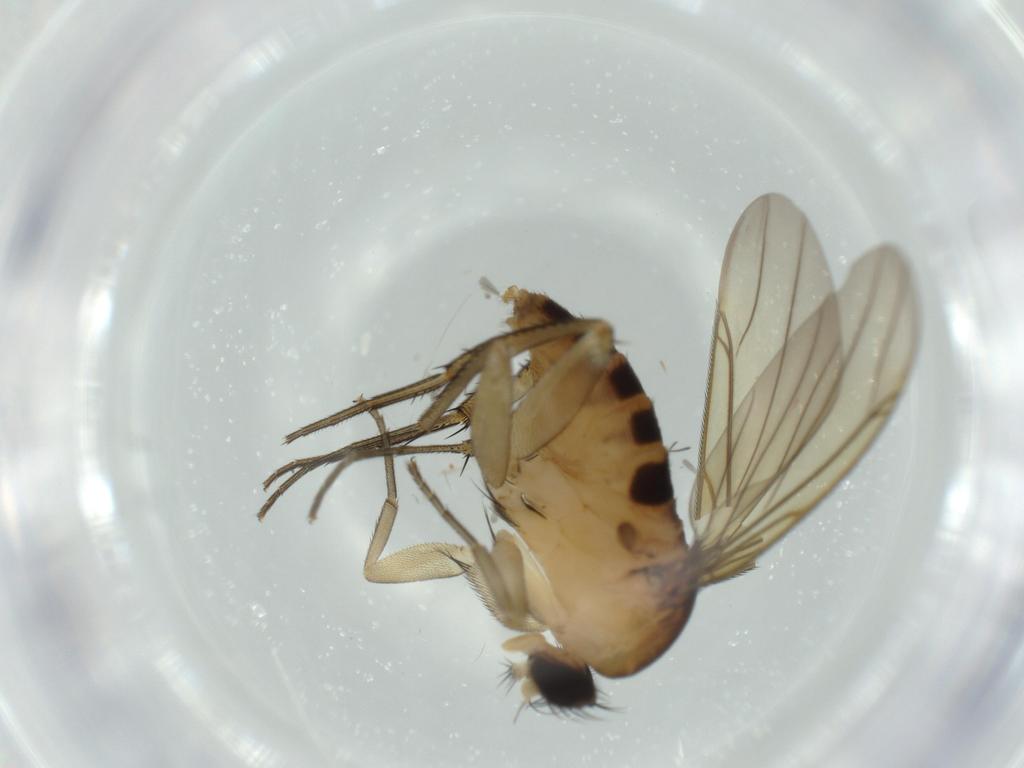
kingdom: Animalia
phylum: Arthropoda
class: Insecta
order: Diptera
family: Phoridae
